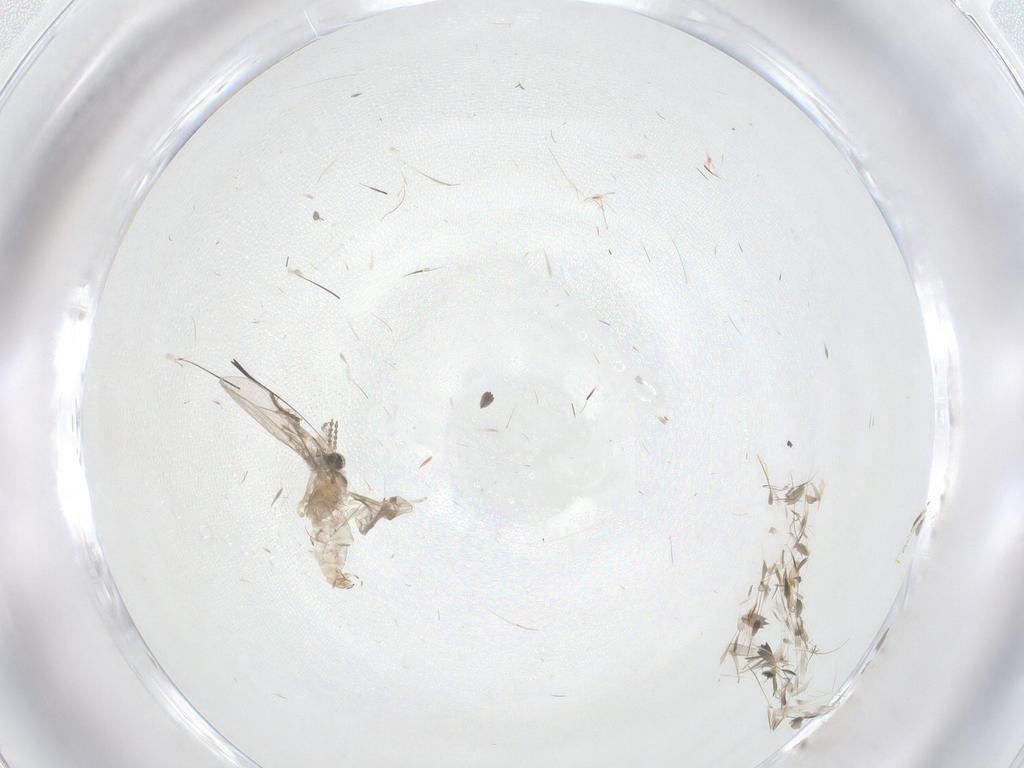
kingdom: Animalia
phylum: Arthropoda
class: Insecta
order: Diptera
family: Cecidomyiidae
